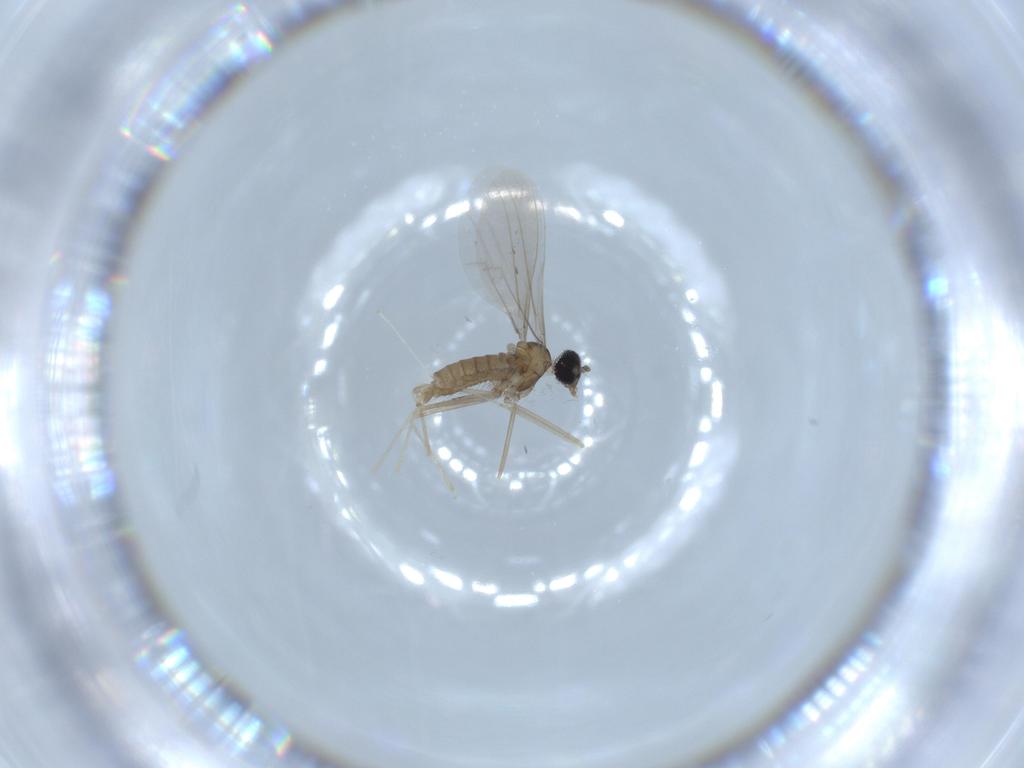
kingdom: Animalia
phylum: Arthropoda
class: Insecta
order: Diptera
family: Cecidomyiidae
